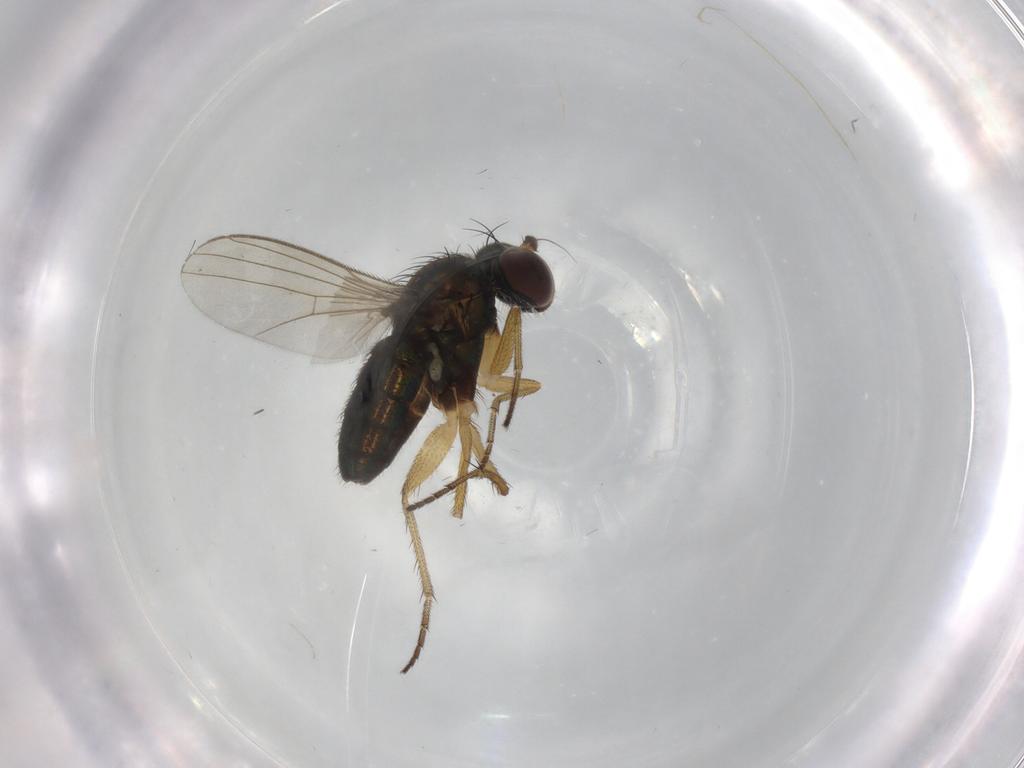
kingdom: Animalia
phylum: Arthropoda
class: Insecta
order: Diptera
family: Dolichopodidae
